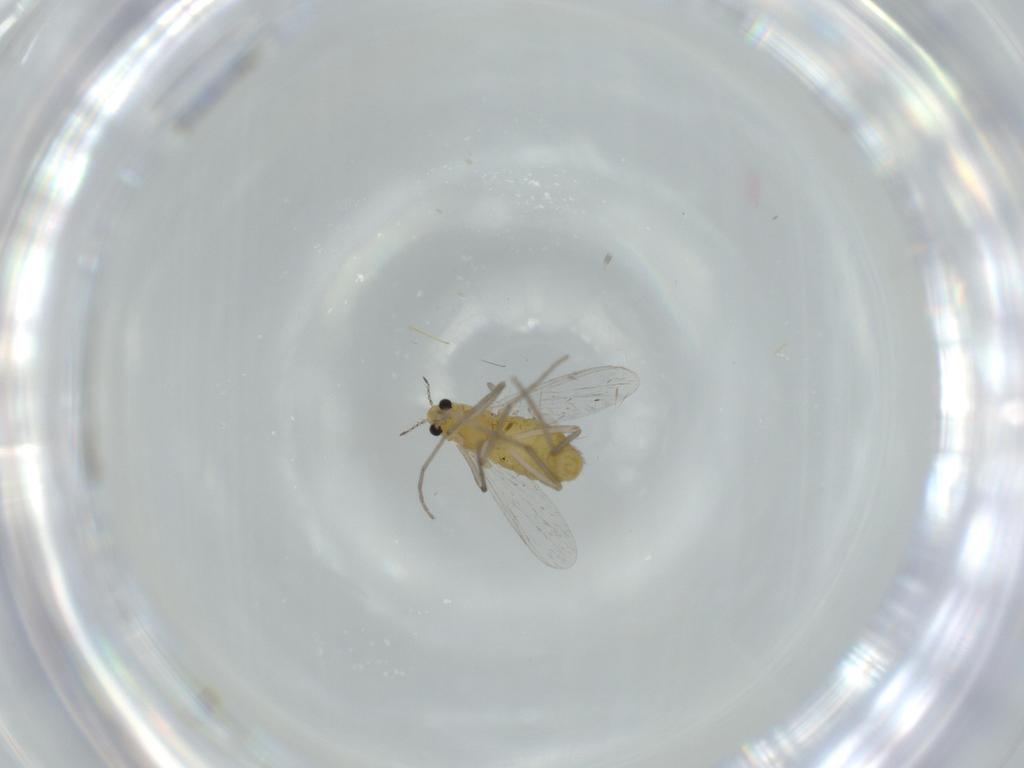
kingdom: Animalia
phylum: Arthropoda
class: Insecta
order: Diptera
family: Chironomidae
